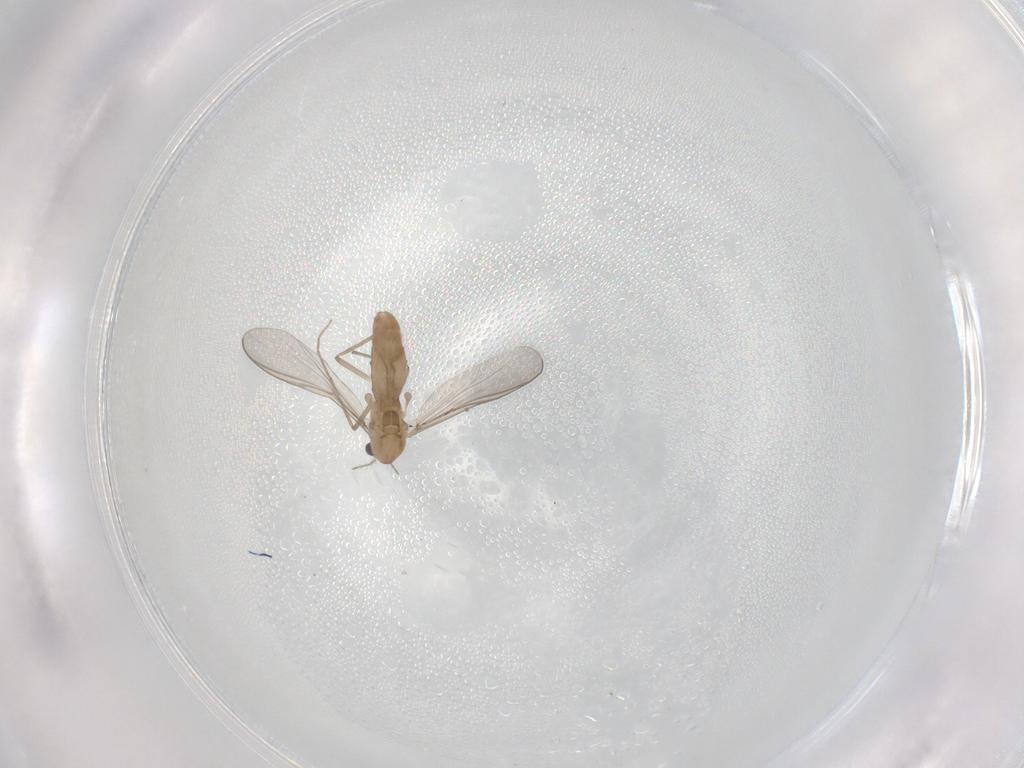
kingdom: Animalia
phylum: Arthropoda
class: Insecta
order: Diptera
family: Chironomidae
